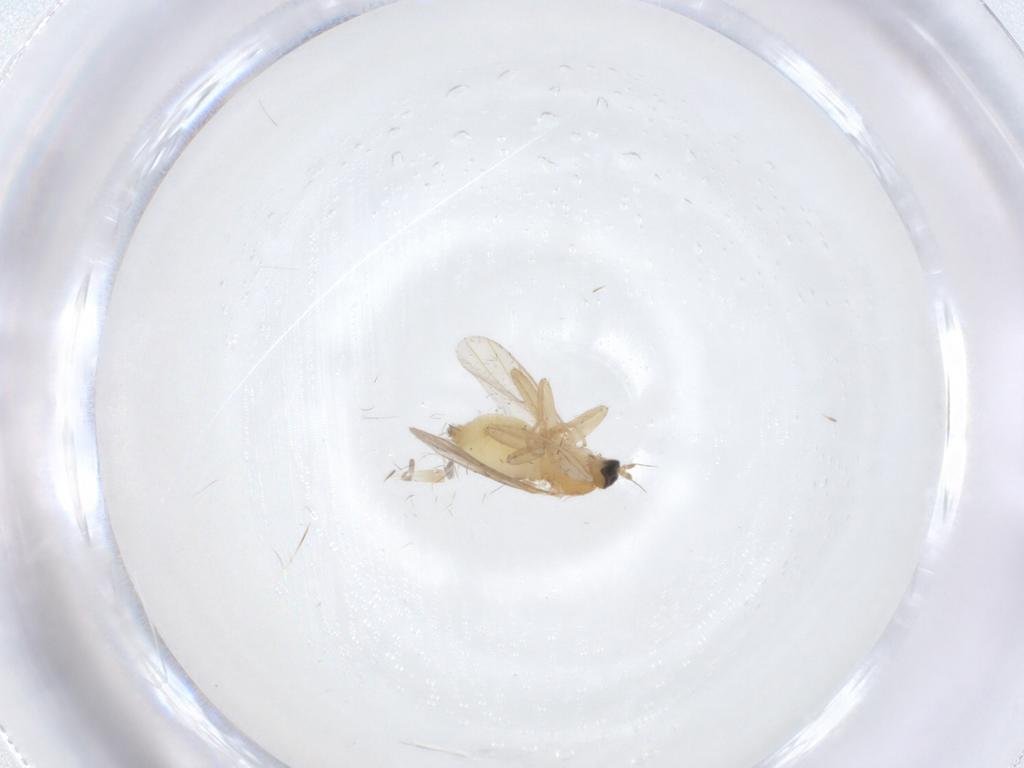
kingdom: Animalia
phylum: Arthropoda
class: Insecta
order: Diptera
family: Hybotidae
